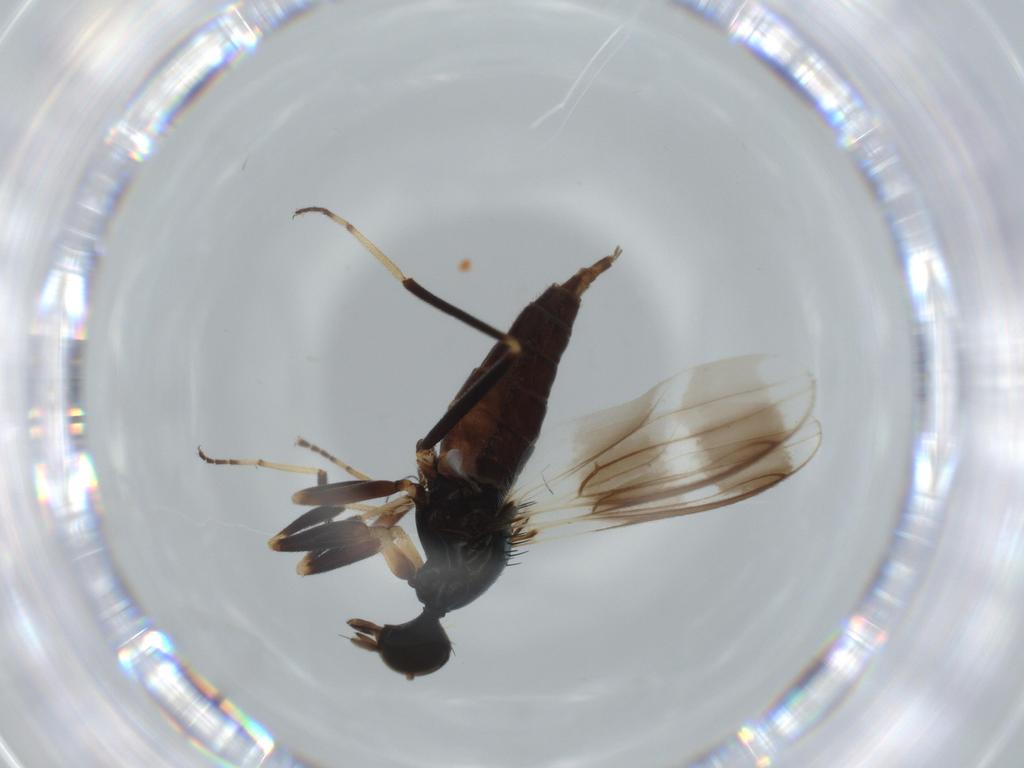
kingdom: Animalia
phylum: Arthropoda
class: Insecta
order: Diptera
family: Hybotidae
